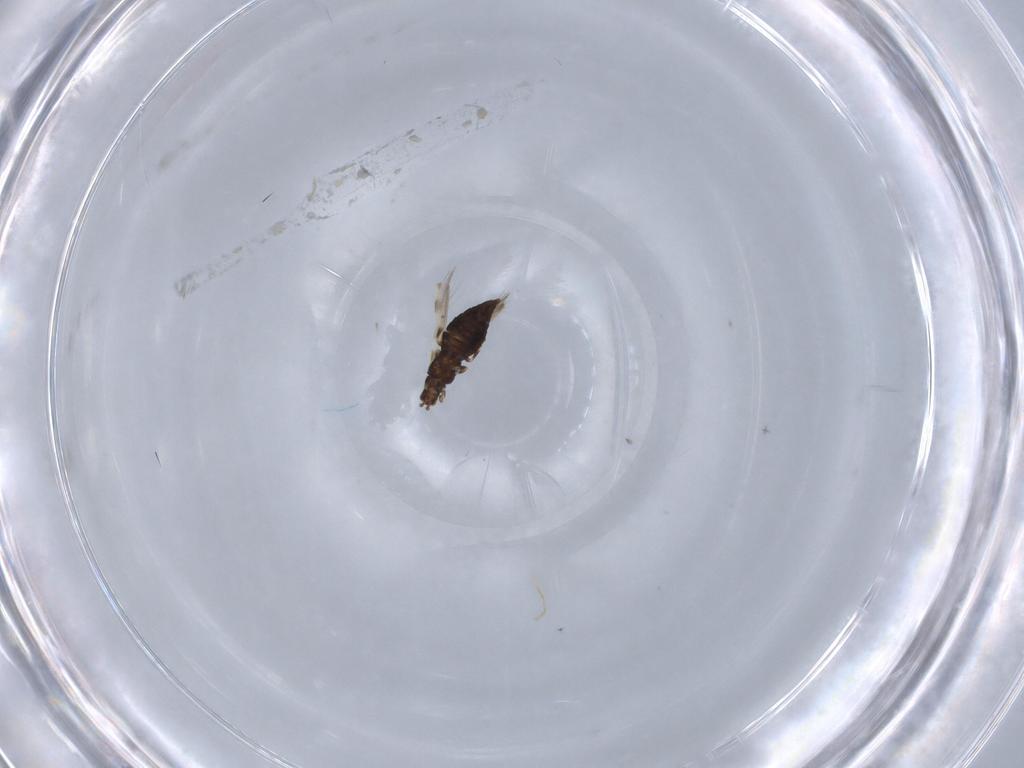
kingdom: Animalia
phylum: Arthropoda
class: Insecta
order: Thysanoptera
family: Thripidae
